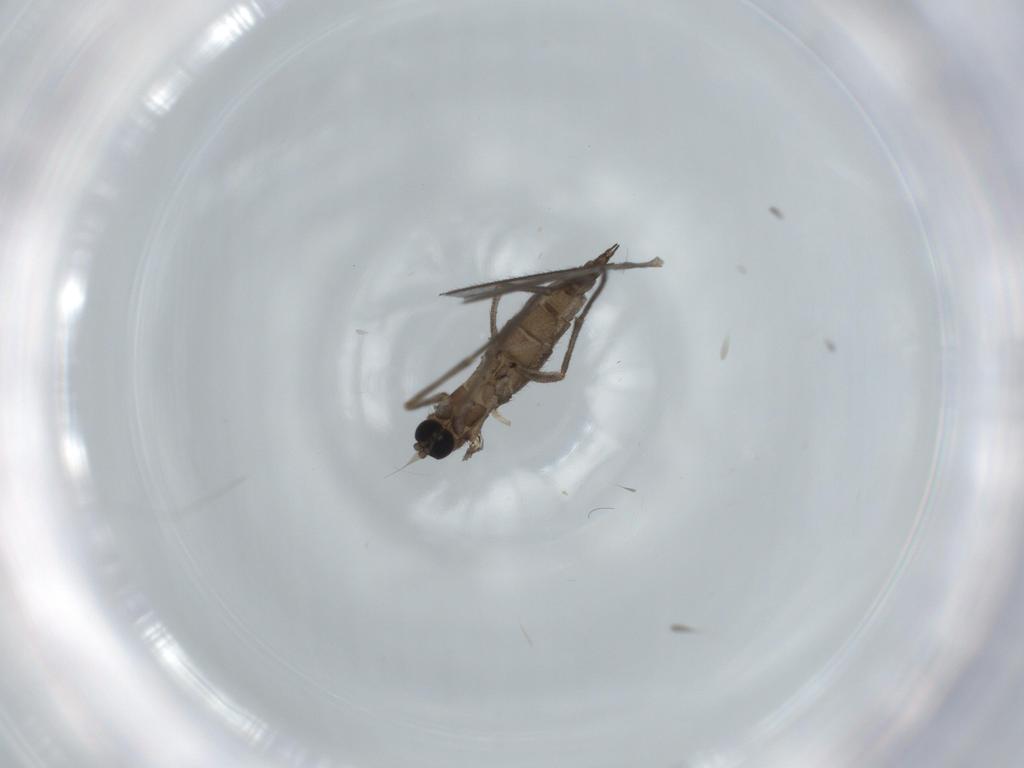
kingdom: Animalia
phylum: Arthropoda
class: Insecta
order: Diptera
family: Sciaridae
